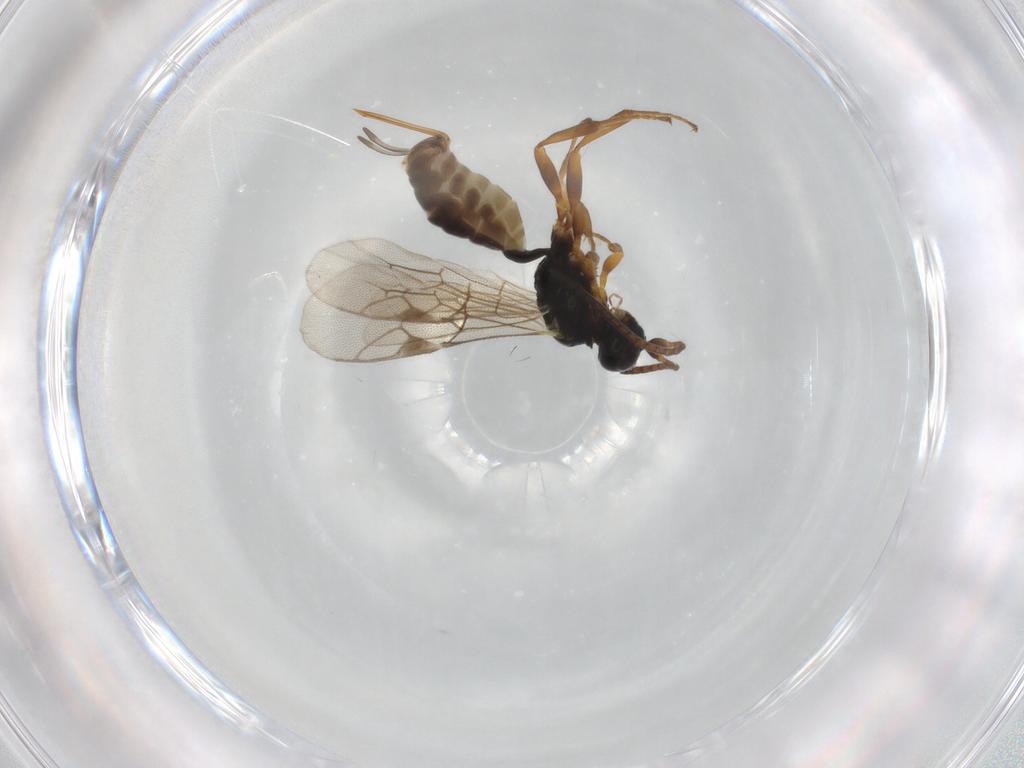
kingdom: Animalia
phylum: Arthropoda
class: Insecta
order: Hymenoptera
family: Ichneumonidae
